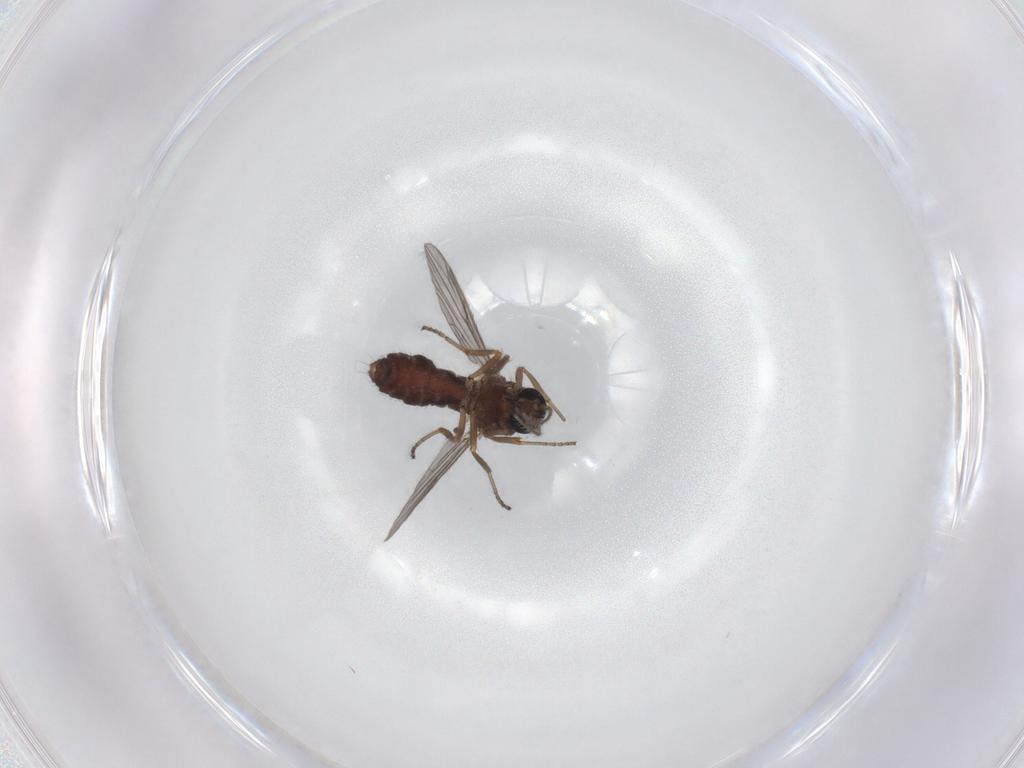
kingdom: Animalia
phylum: Arthropoda
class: Insecta
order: Diptera
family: Ceratopogonidae
